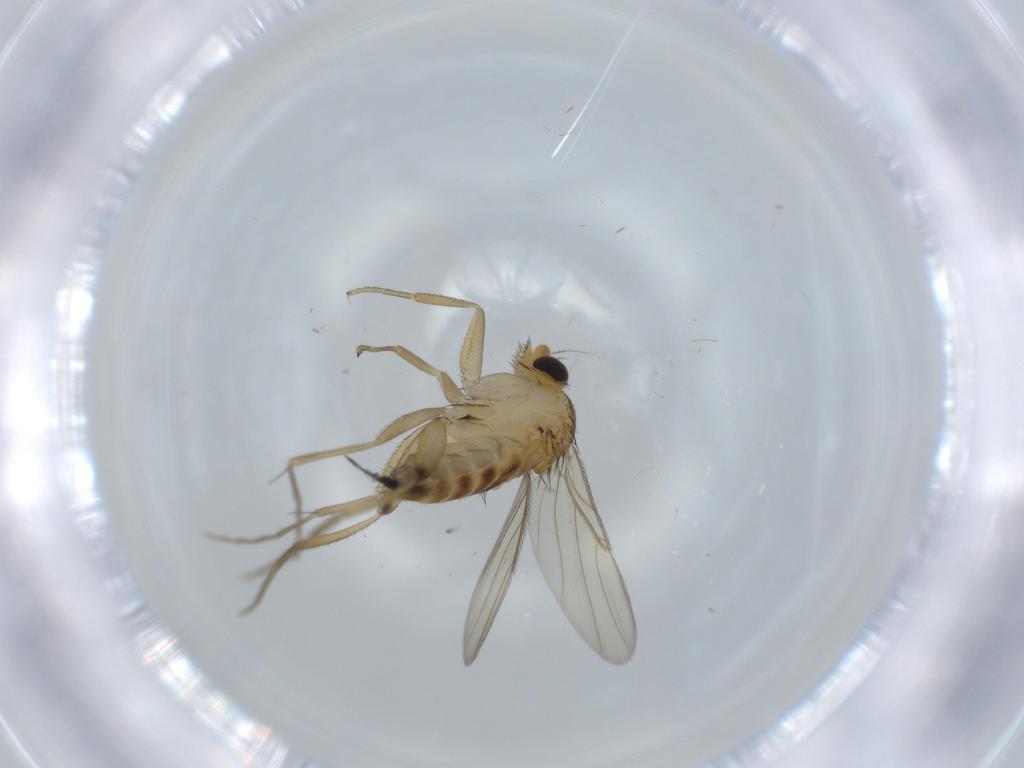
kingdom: Animalia
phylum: Arthropoda
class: Insecta
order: Diptera
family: Phoridae
